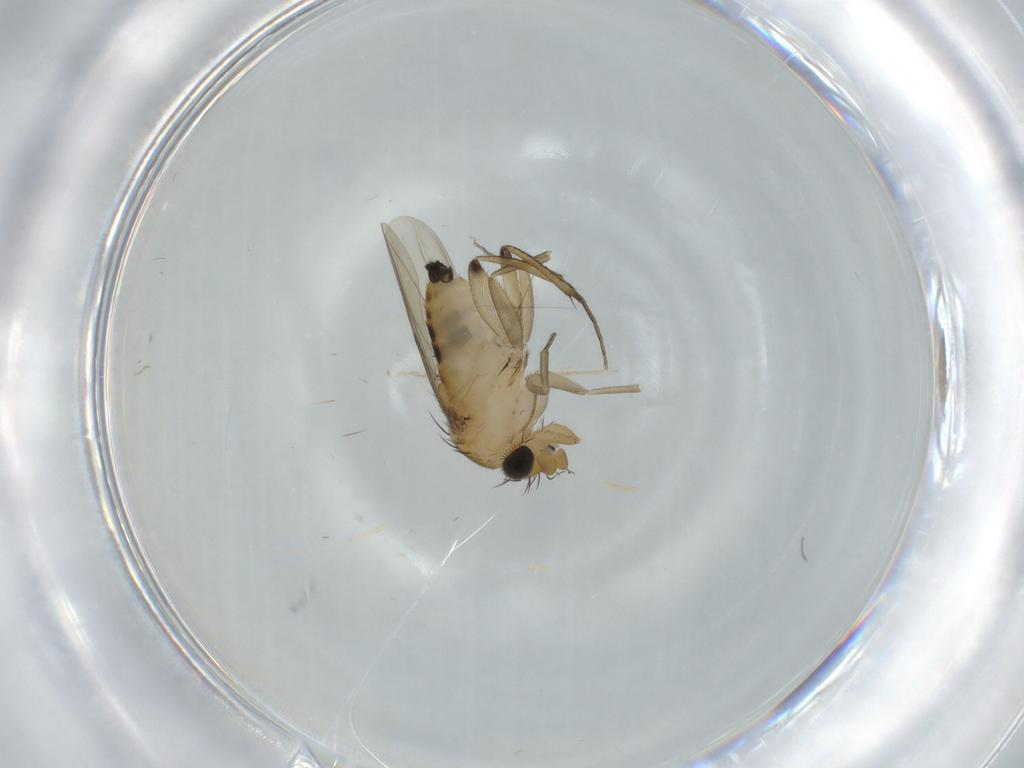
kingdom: Animalia
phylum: Arthropoda
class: Insecta
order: Diptera
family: Phoridae
